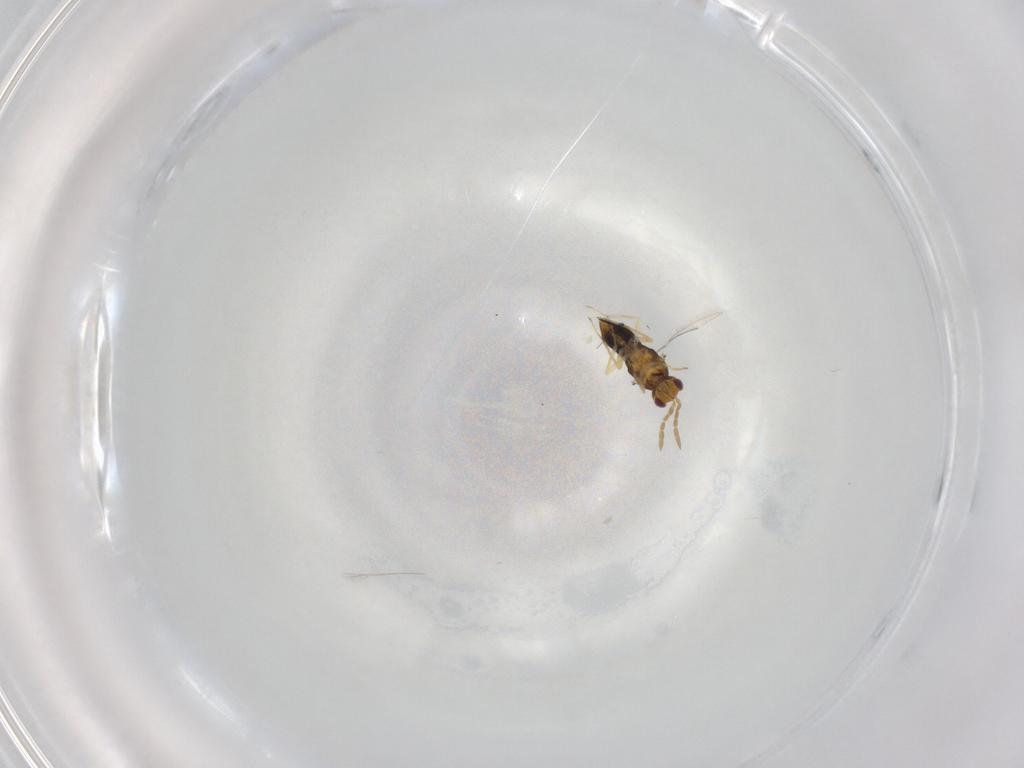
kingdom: Animalia
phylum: Arthropoda
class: Insecta
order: Hymenoptera
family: Aphelinidae
